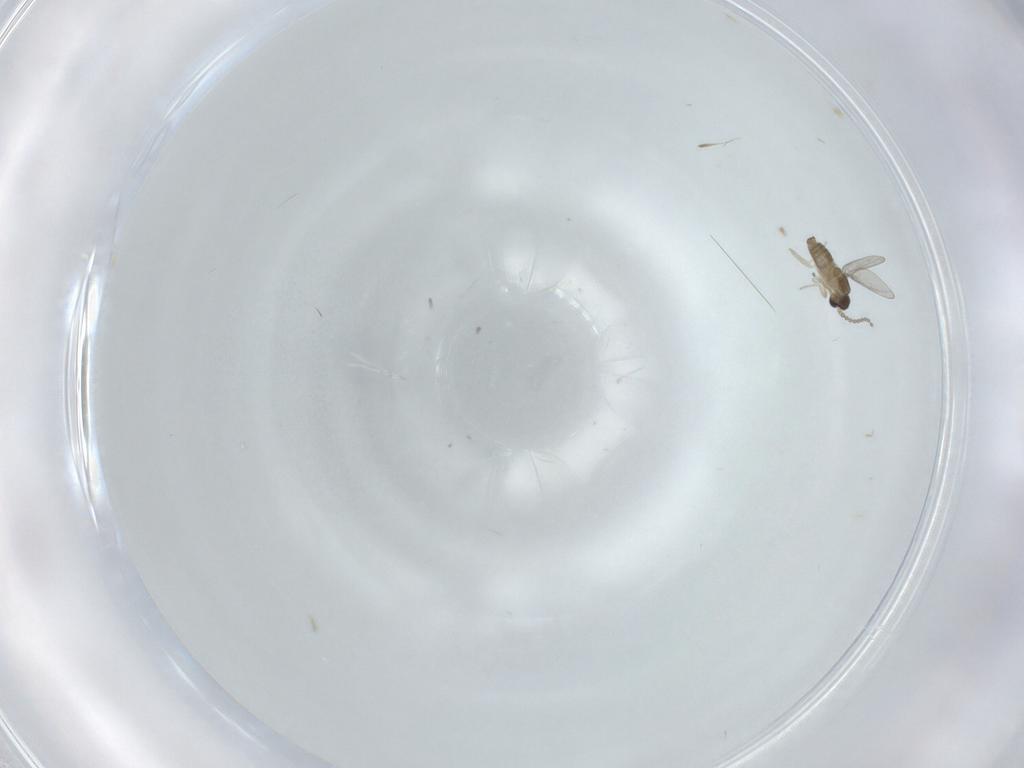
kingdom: Animalia
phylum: Arthropoda
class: Insecta
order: Diptera
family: Cecidomyiidae
